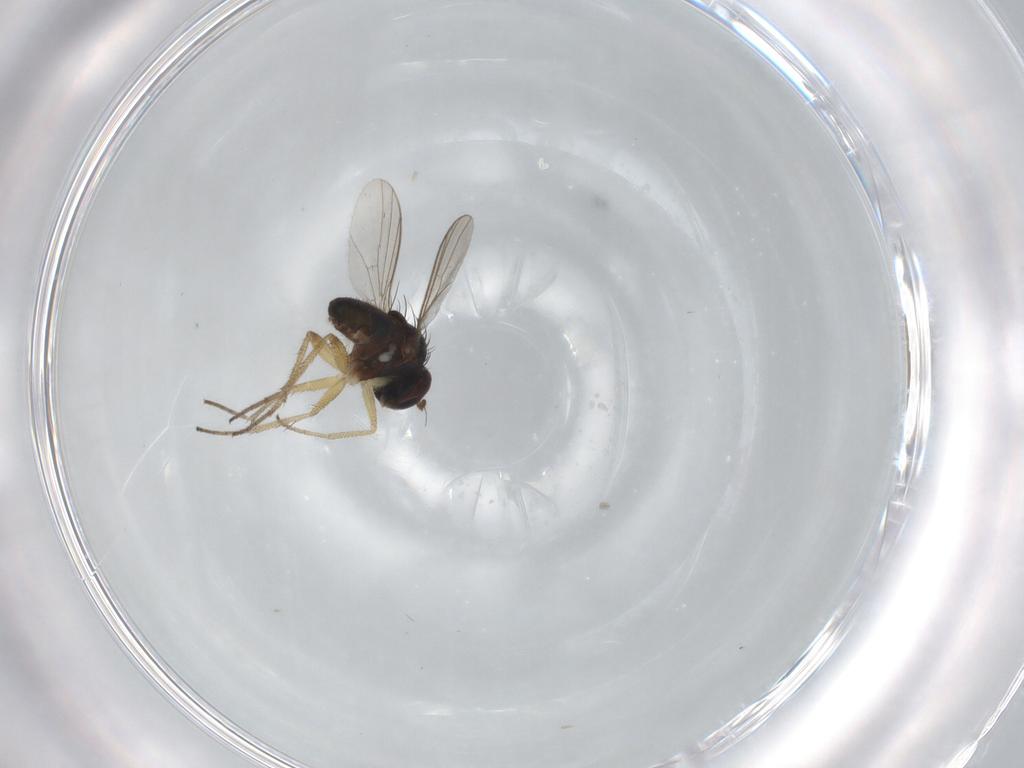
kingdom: Animalia
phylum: Arthropoda
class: Insecta
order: Diptera
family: Dolichopodidae
